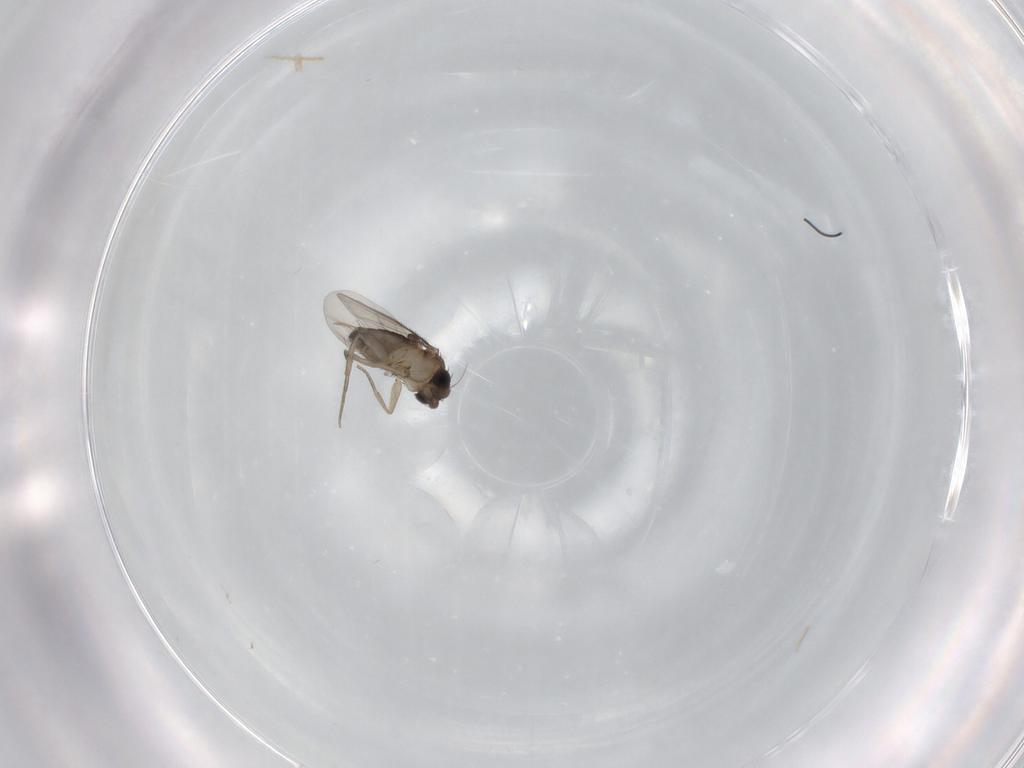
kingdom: Animalia
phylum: Arthropoda
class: Insecta
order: Diptera
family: Phoridae
